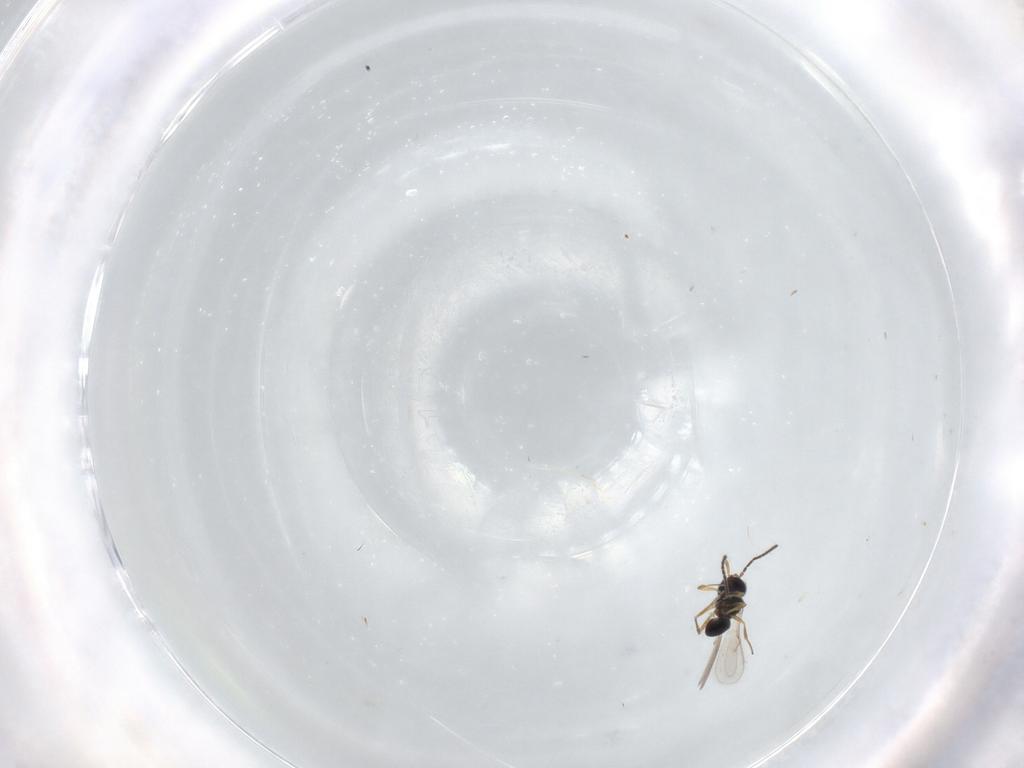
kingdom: Animalia
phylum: Arthropoda
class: Insecta
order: Hymenoptera
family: Scelionidae
